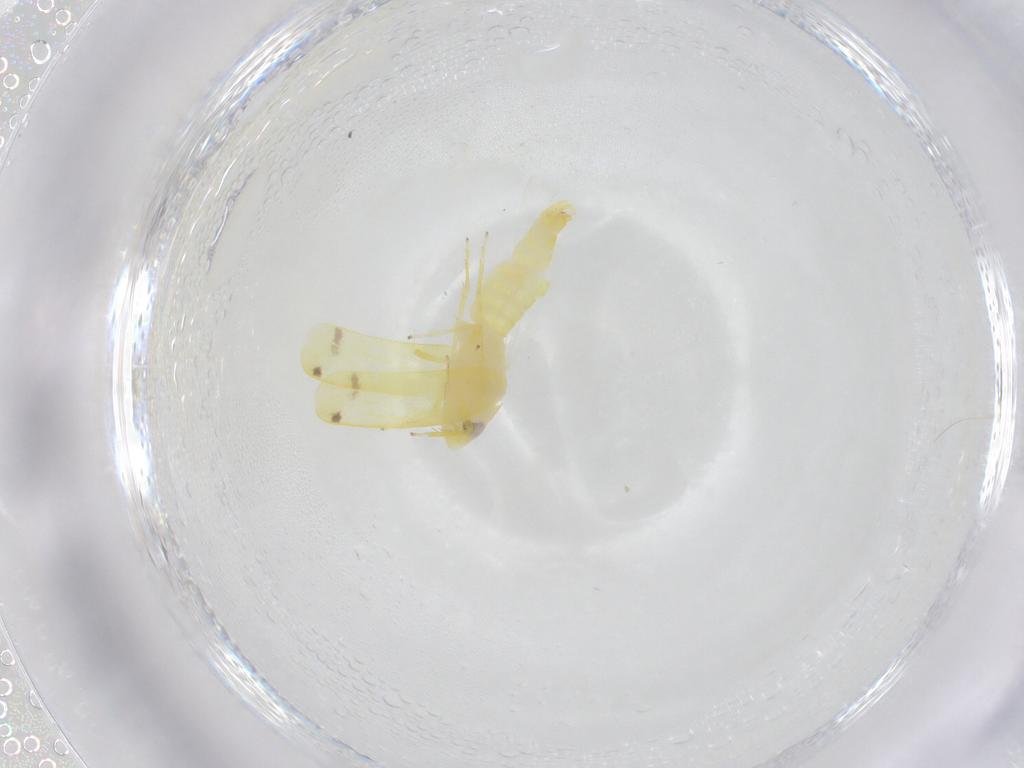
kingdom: Animalia
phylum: Arthropoda
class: Insecta
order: Hemiptera
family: Cicadellidae
